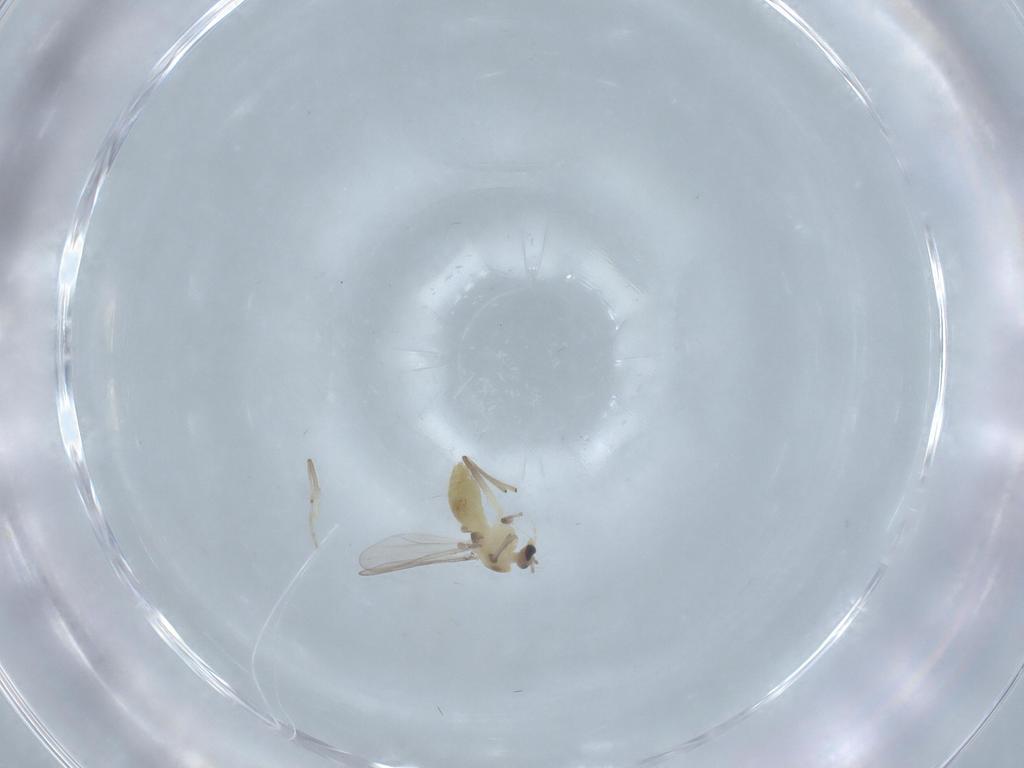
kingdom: Animalia
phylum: Arthropoda
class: Insecta
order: Diptera
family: Chironomidae
